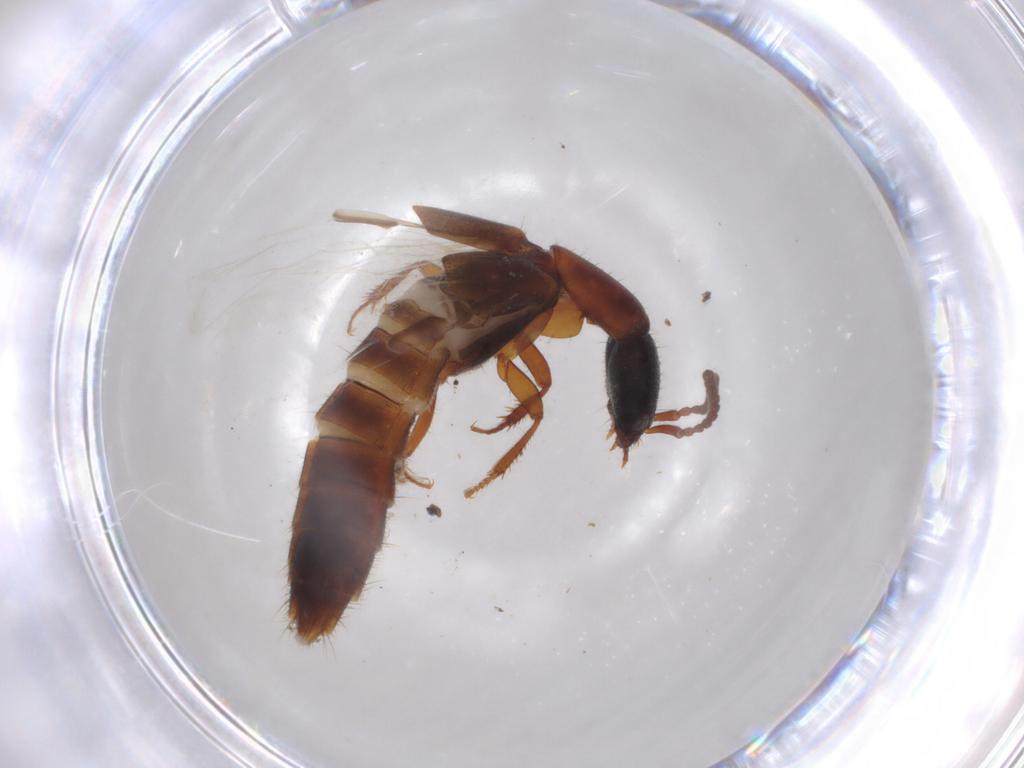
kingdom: Animalia
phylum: Arthropoda
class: Insecta
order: Coleoptera
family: Staphylinidae
